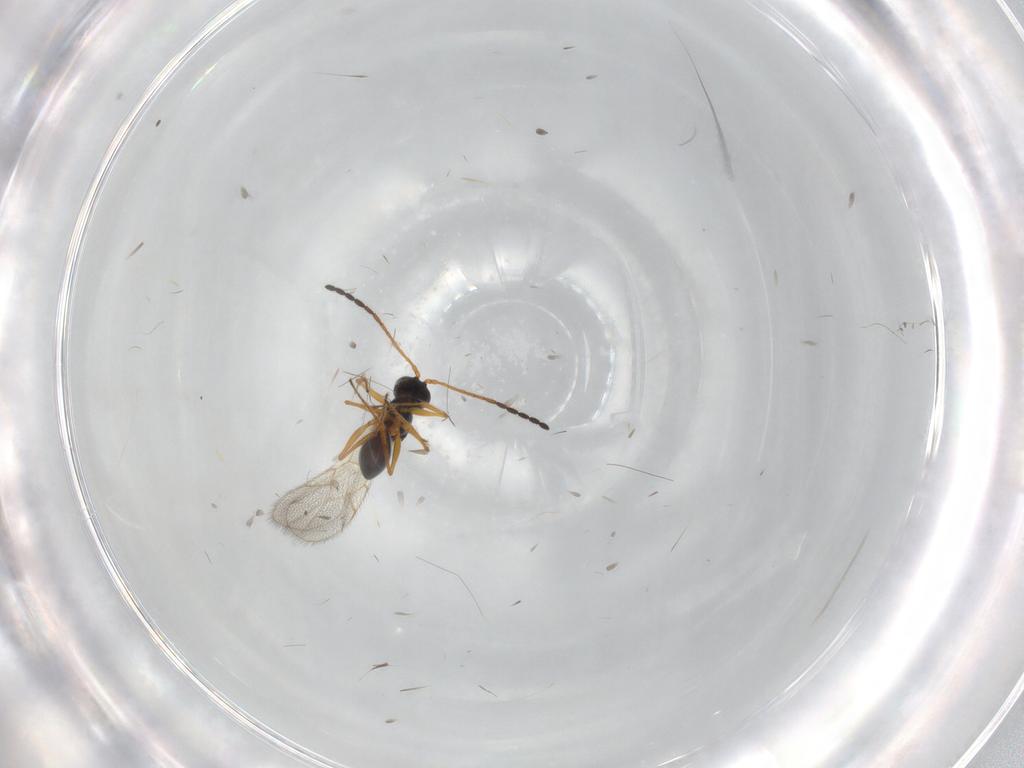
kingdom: Animalia
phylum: Arthropoda
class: Insecta
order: Hymenoptera
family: Figitidae
